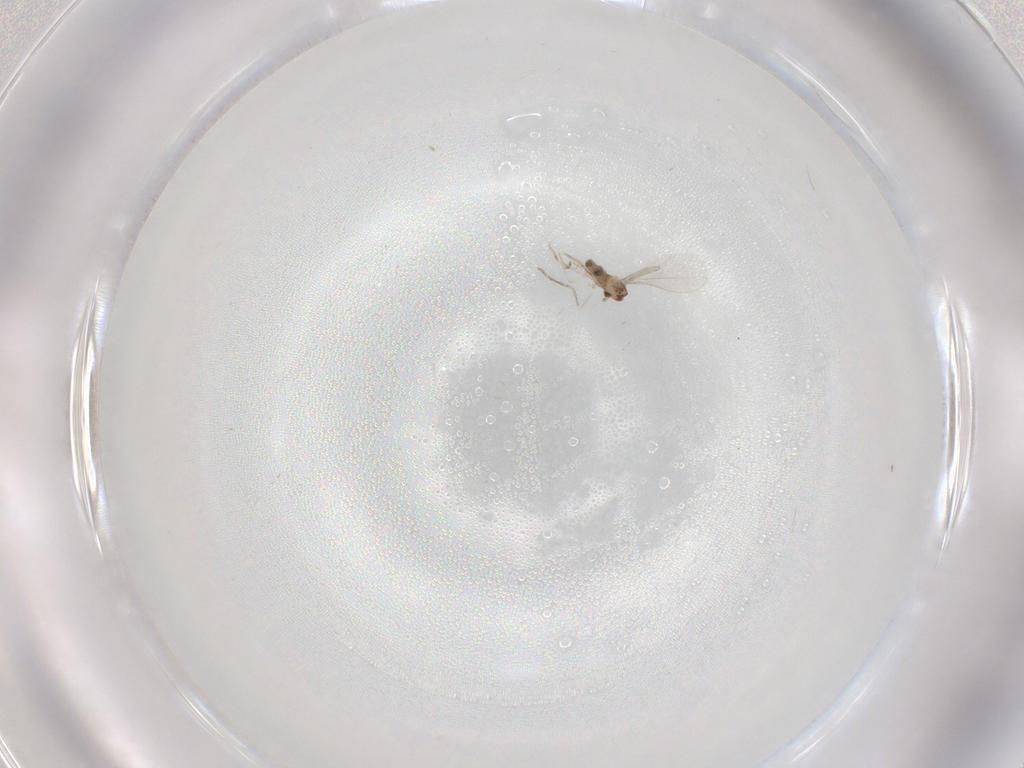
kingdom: Animalia
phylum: Arthropoda
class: Insecta
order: Diptera
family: Cecidomyiidae
